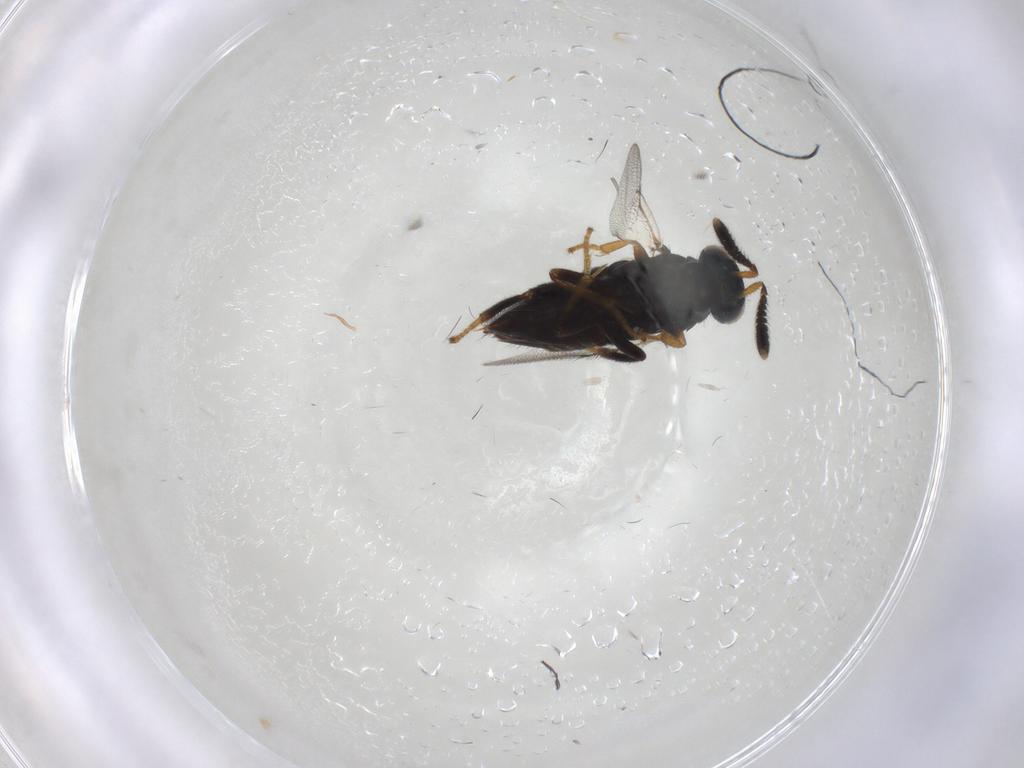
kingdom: Animalia
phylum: Arthropoda
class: Insecta
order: Hymenoptera
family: Encyrtidae
